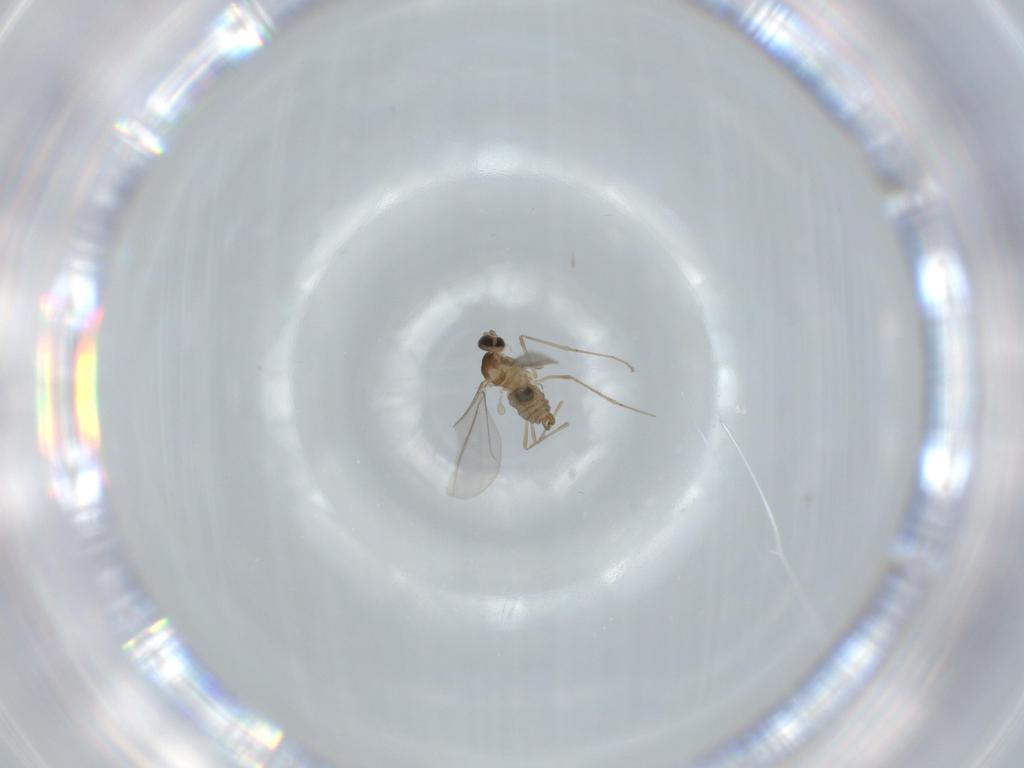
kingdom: Animalia
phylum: Arthropoda
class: Insecta
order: Diptera
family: Cecidomyiidae
